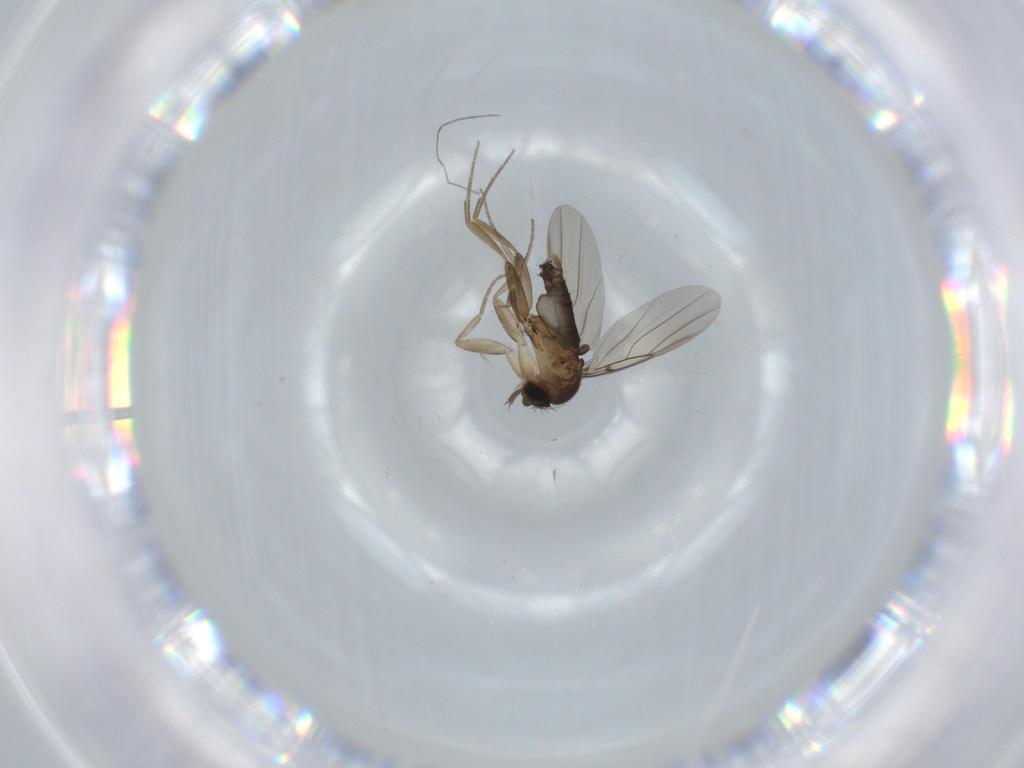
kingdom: Animalia
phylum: Arthropoda
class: Insecta
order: Diptera
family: Phoridae
